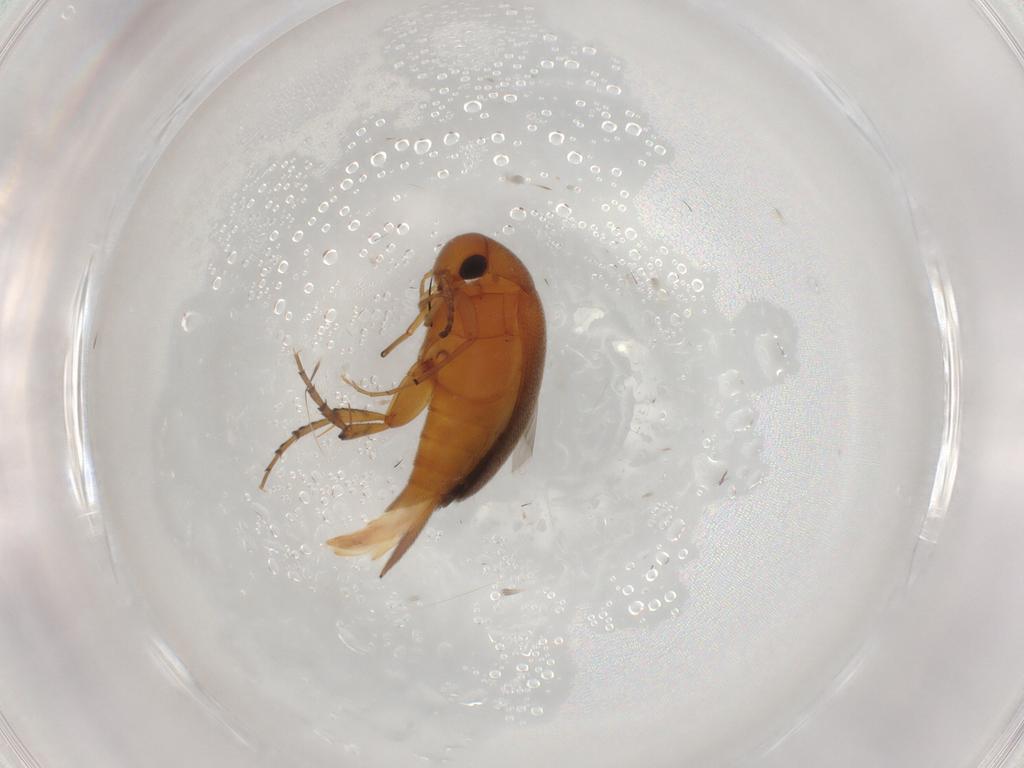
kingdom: Animalia
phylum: Arthropoda
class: Insecta
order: Coleoptera
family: Mordellidae
